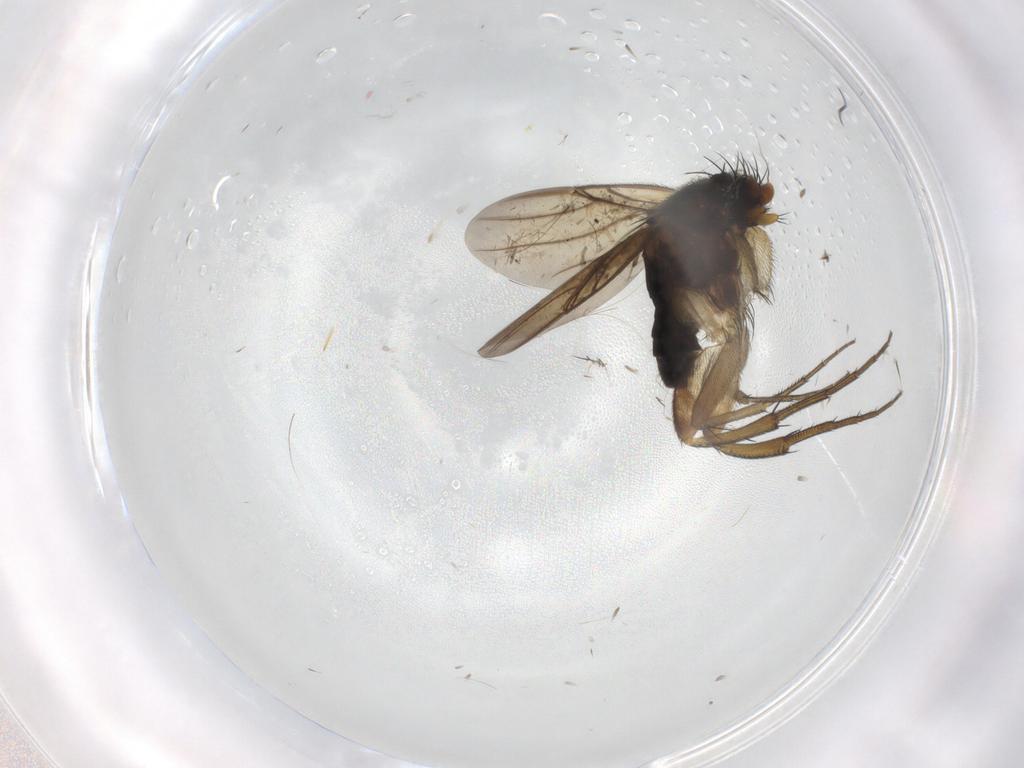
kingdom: Animalia
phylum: Arthropoda
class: Insecta
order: Diptera
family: Phoridae
